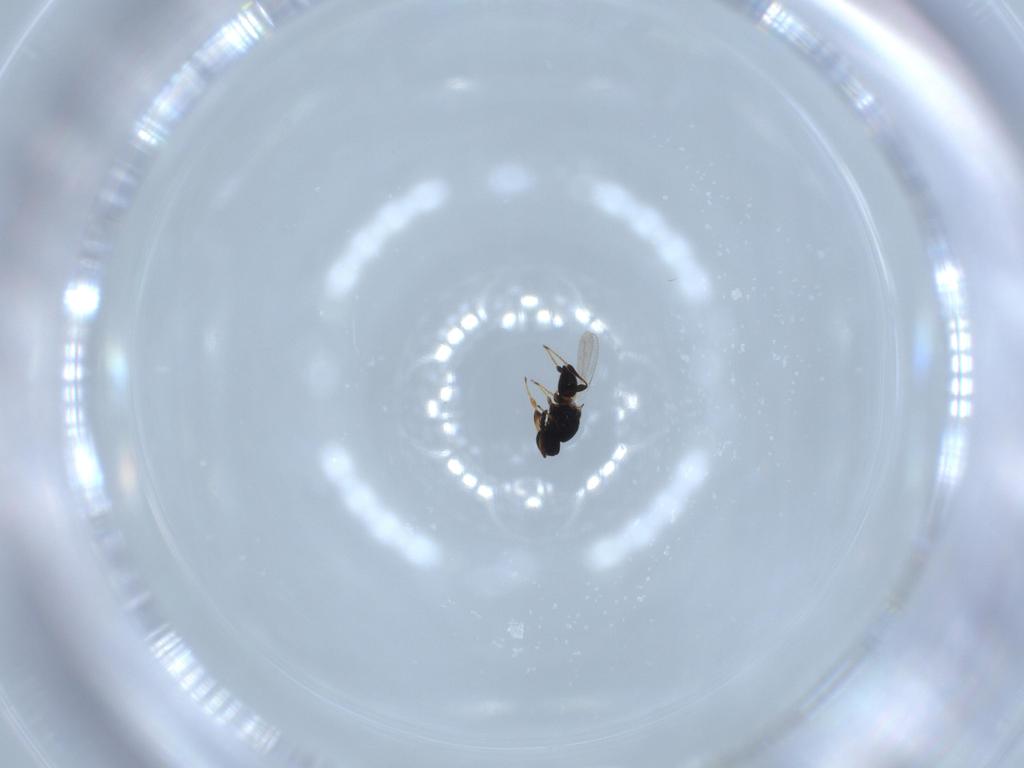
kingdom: Animalia
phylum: Arthropoda
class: Insecta
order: Hymenoptera
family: Platygastridae
